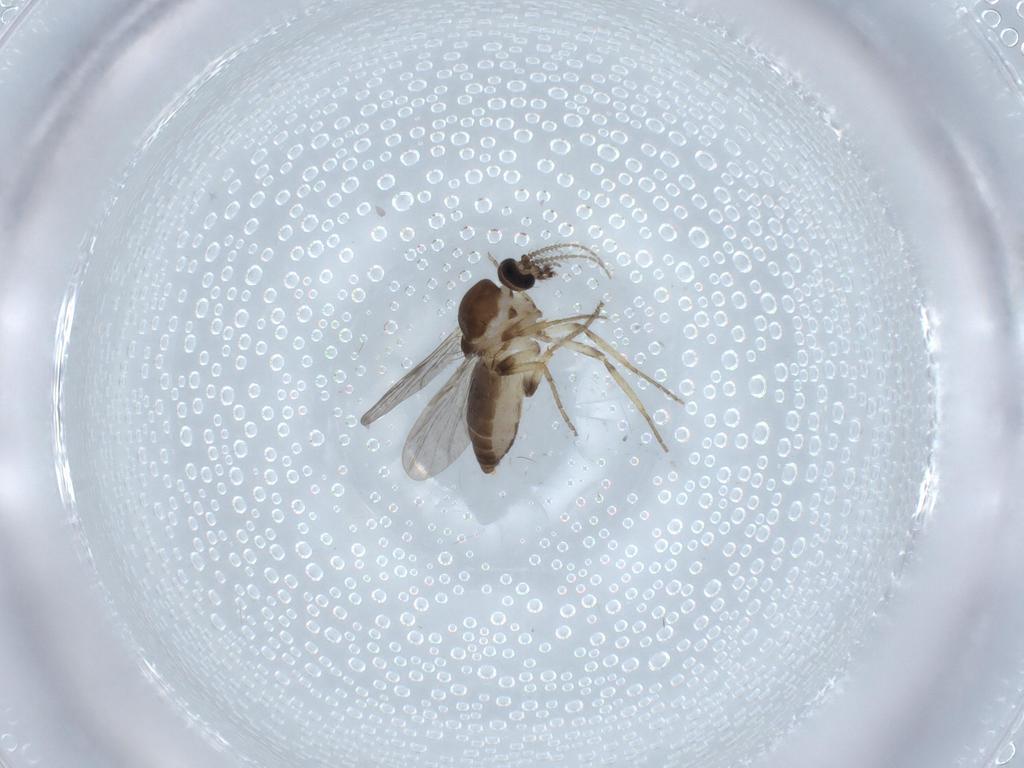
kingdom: Animalia
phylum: Arthropoda
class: Insecta
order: Diptera
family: Ceratopogonidae
